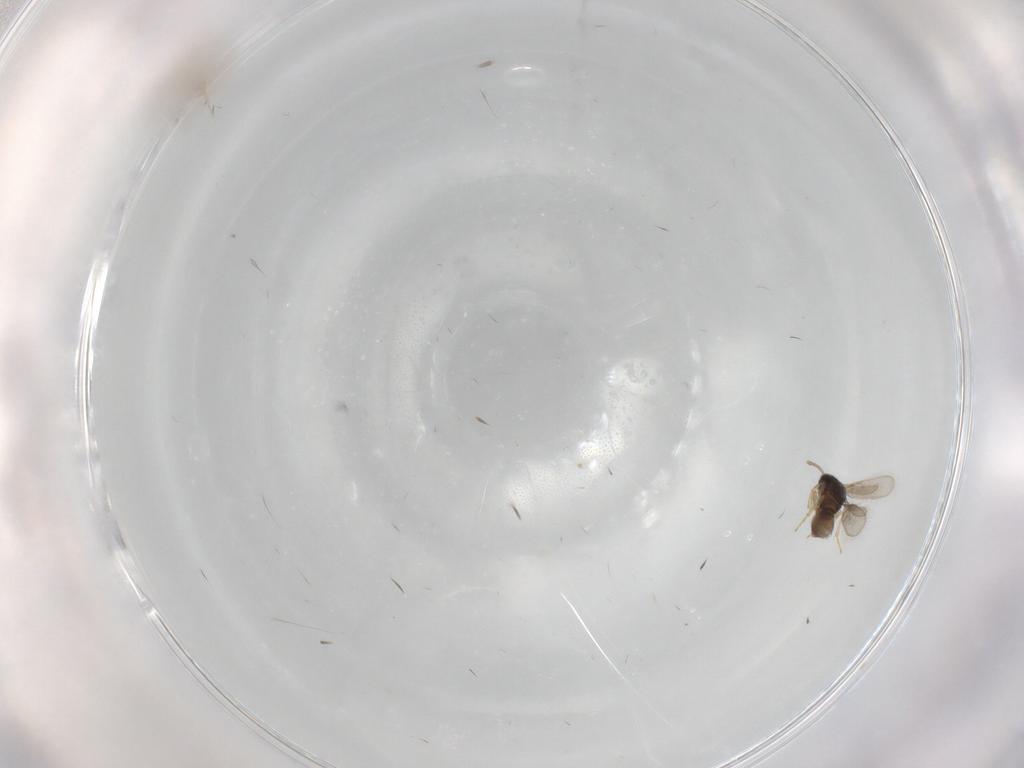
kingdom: Animalia
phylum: Arthropoda
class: Insecta
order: Hymenoptera
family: Scelionidae
